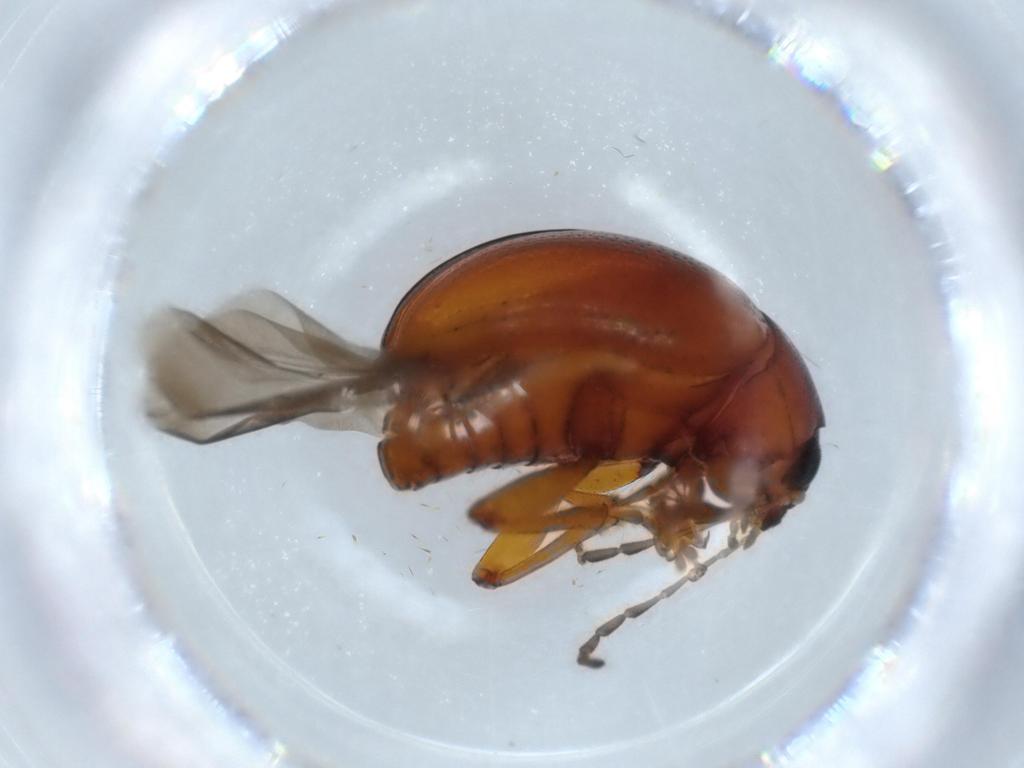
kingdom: Animalia
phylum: Arthropoda
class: Insecta
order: Coleoptera
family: Chrysomelidae
